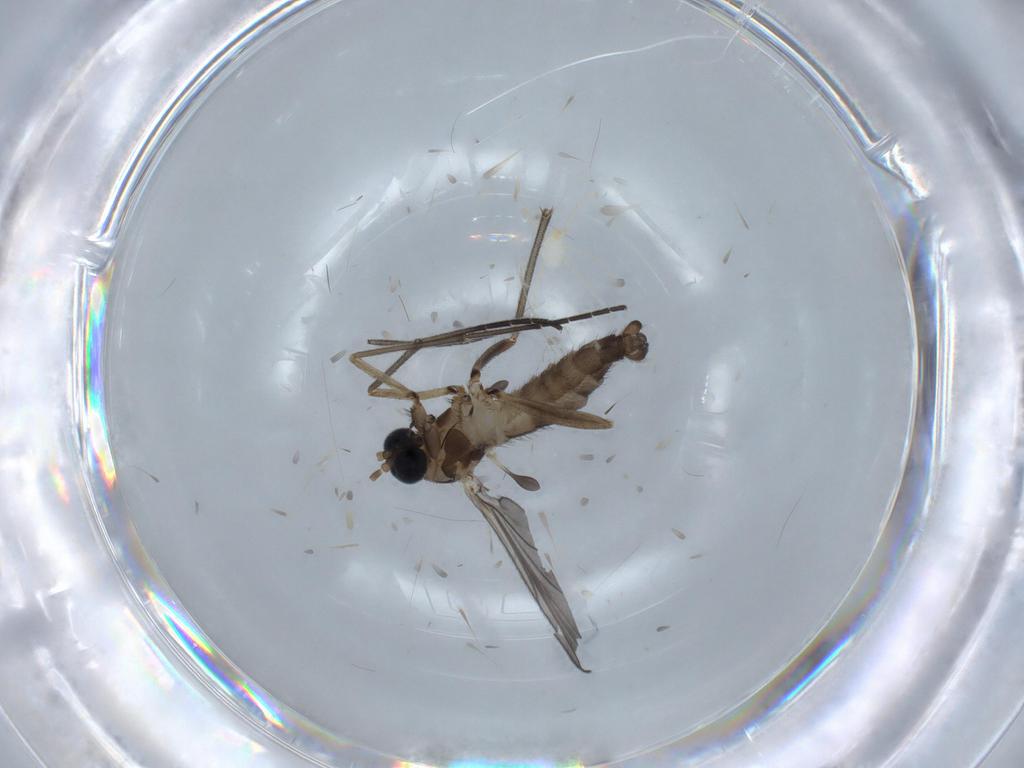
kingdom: Animalia
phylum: Arthropoda
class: Insecta
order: Diptera
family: Sciaridae
